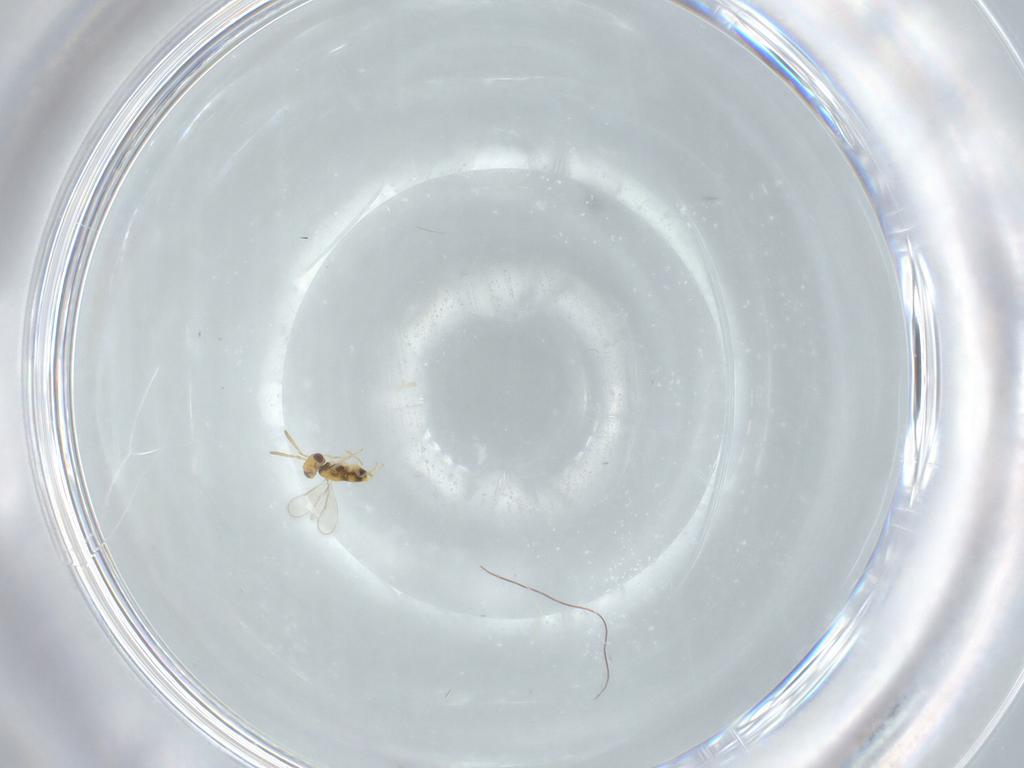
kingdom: Animalia
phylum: Arthropoda
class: Insecta
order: Hymenoptera
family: Aphelinidae
